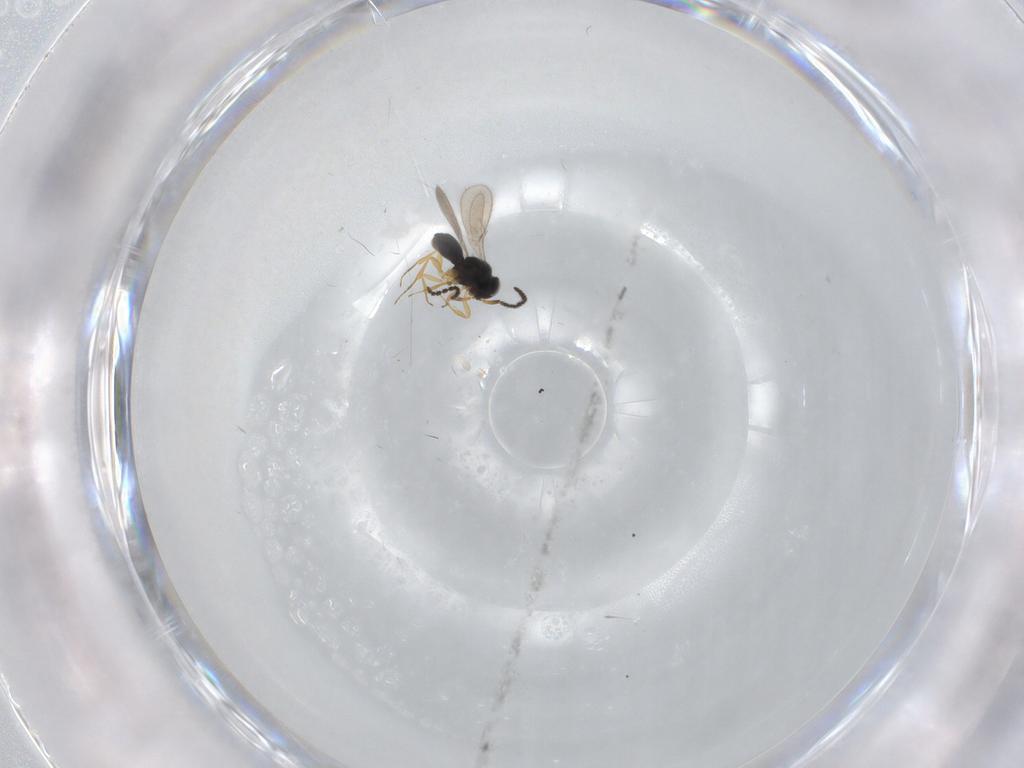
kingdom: Animalia
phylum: Arthropoda
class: Insecta
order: Hymenoptera
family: Scelionidae
